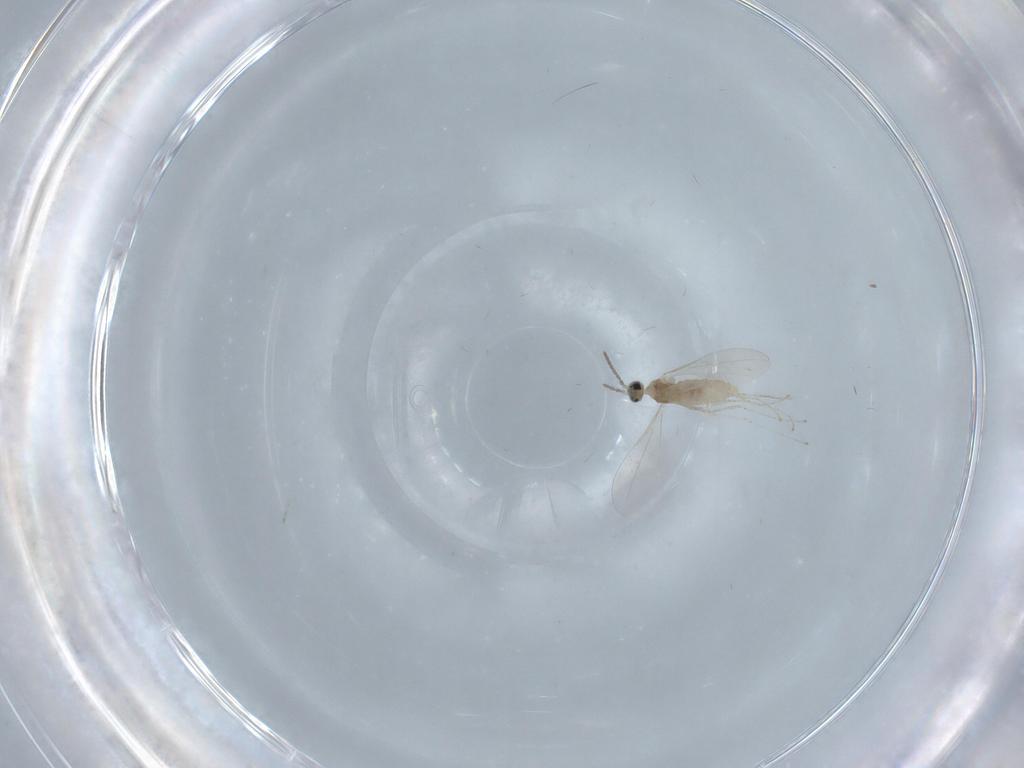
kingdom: Animalia
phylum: Arthropoda
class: Insecta
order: Diptera
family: Cecidomyiidae
